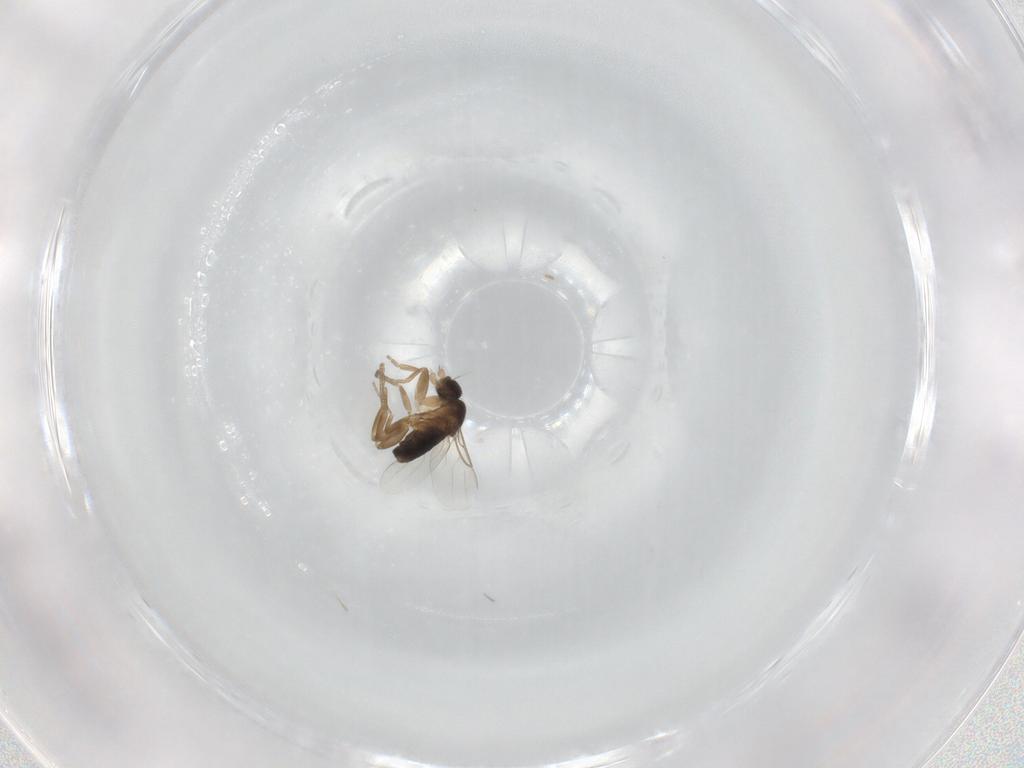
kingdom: Animalia
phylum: Arthropoda
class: Insecta
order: Diptera
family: Phoridae
